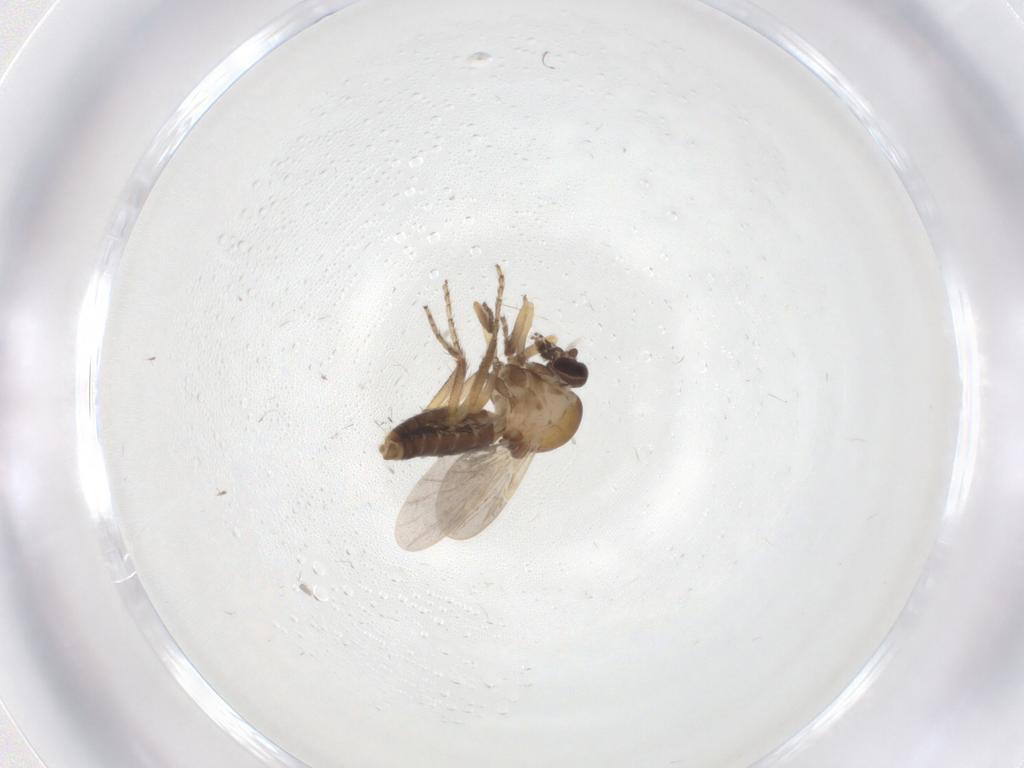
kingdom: Animalia
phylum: Arthropoda
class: Insecta
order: Diptera
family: Ceratopogonidae
